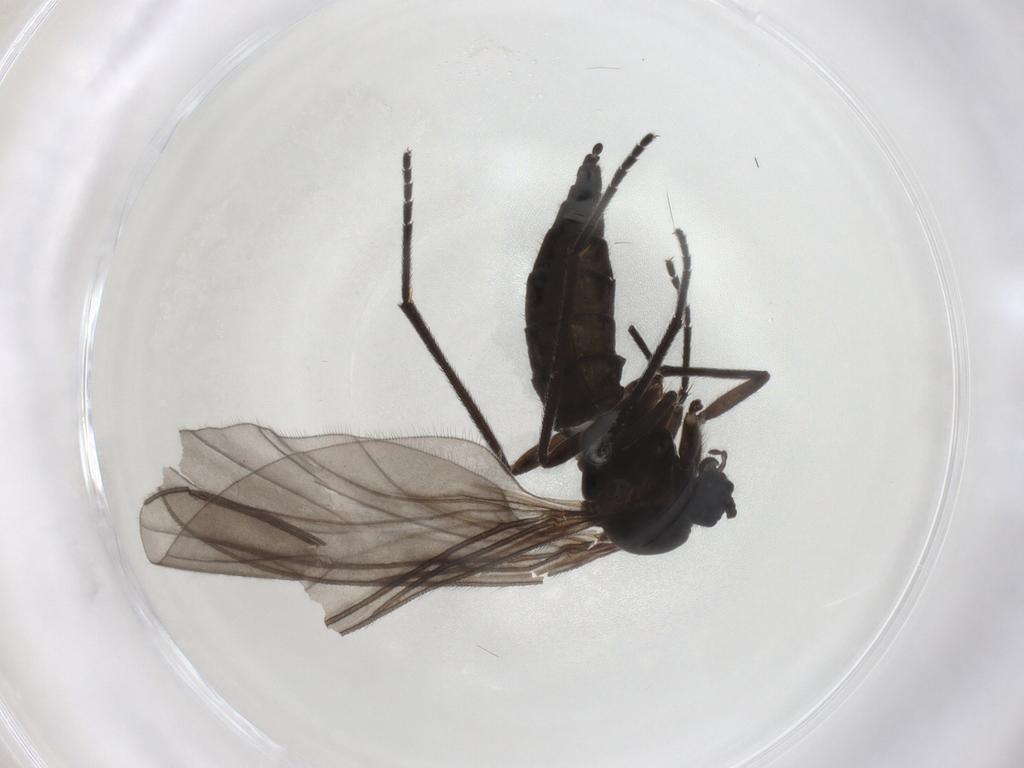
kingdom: Animalia
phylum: Arthropoda
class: Insecta
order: Diptera
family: Sciaridae
